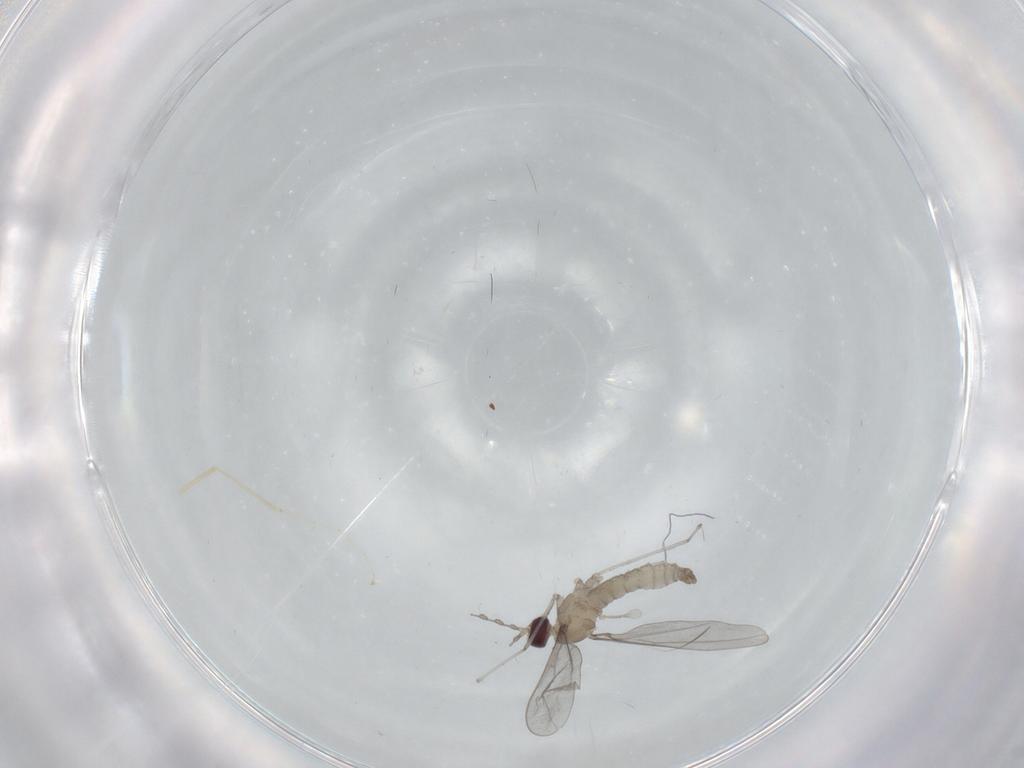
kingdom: Animalia
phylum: Arthropoda
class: Insecta
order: Diptera
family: Cecidomyiidae
